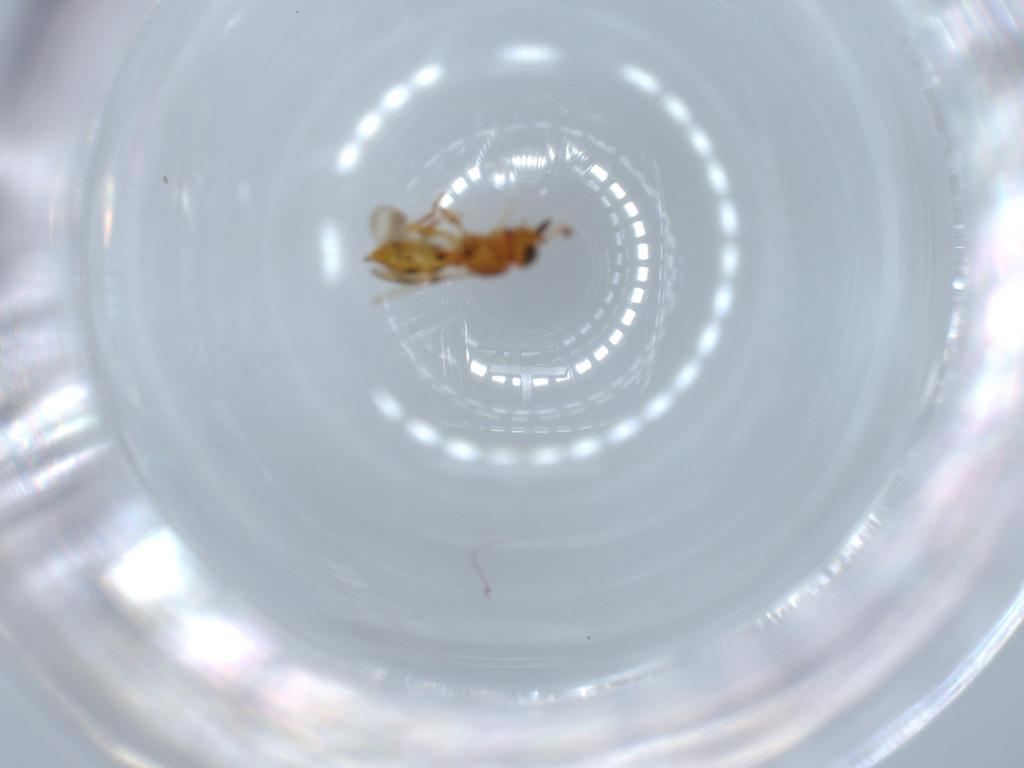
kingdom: Animalia
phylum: Arthropoda
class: Insecta
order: Hymenoptera
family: Scelionidae
